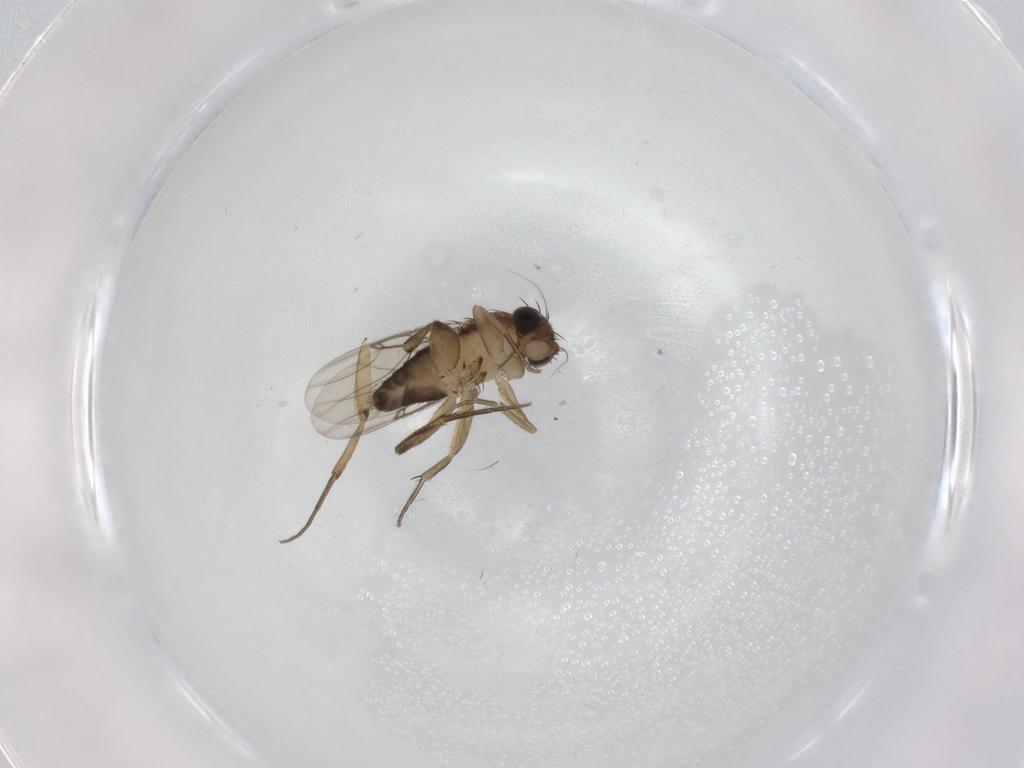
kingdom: Animalia
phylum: Arthropoda
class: Insecta
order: Diptera
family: Phoridae
